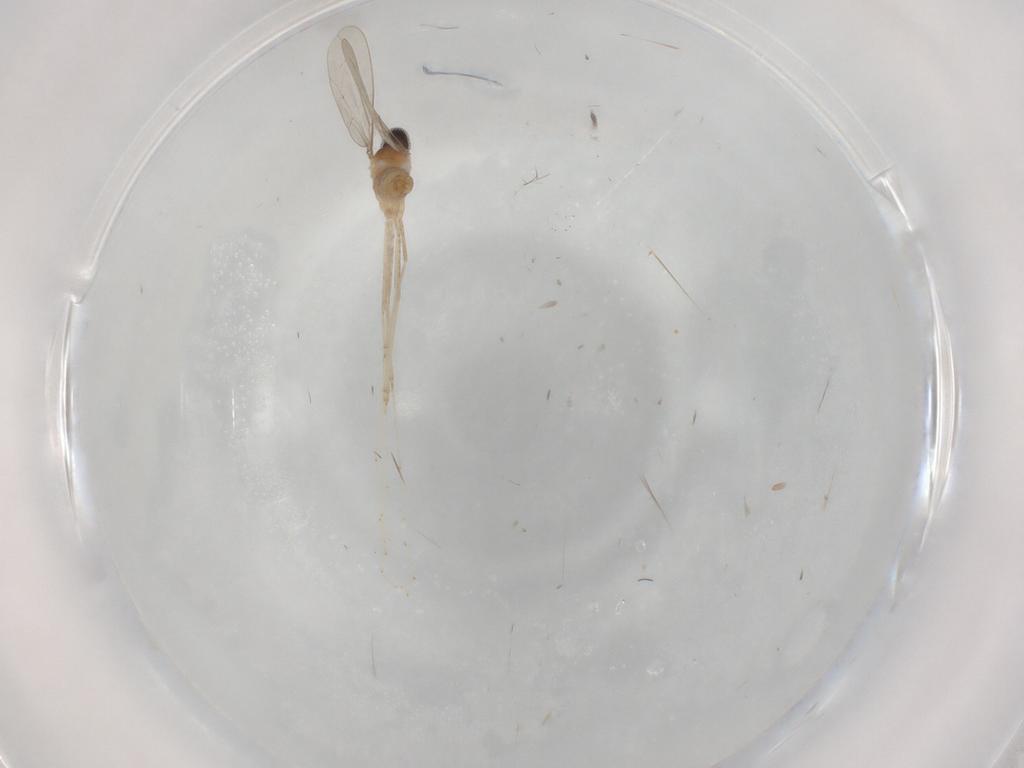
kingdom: Animalia
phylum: Arthropoda
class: Insecta
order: Diptera
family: Cecidomyiidae
